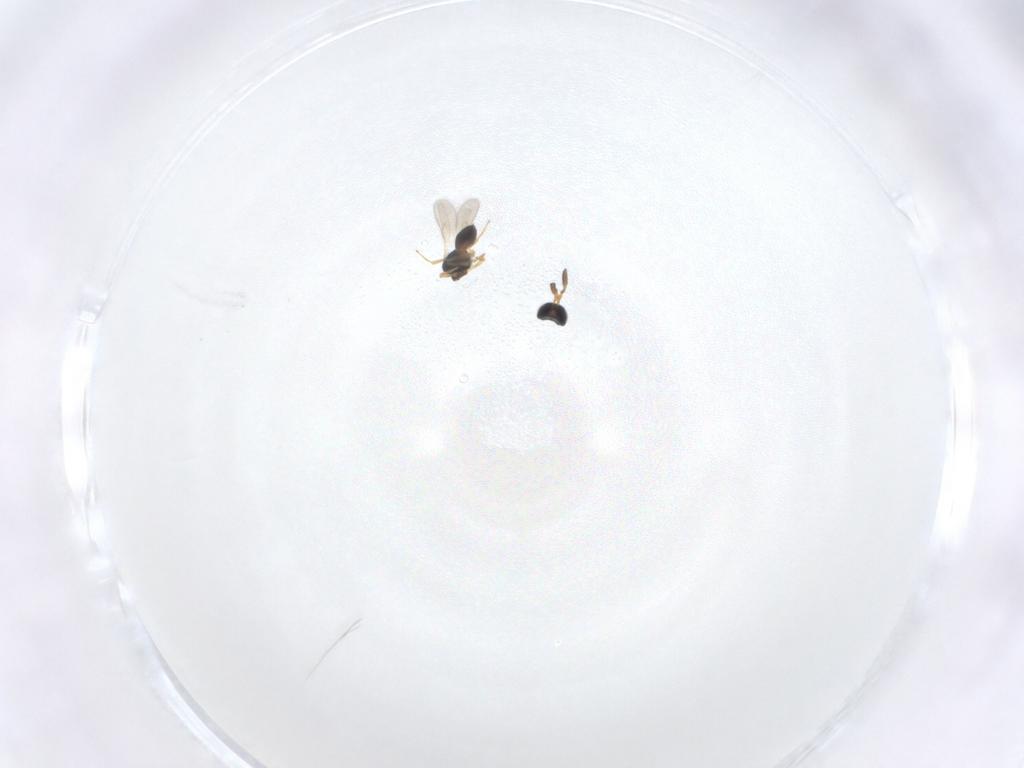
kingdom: Animalia
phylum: Arthropoda
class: Insecta
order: Hymenoptera
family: Scelionidae
